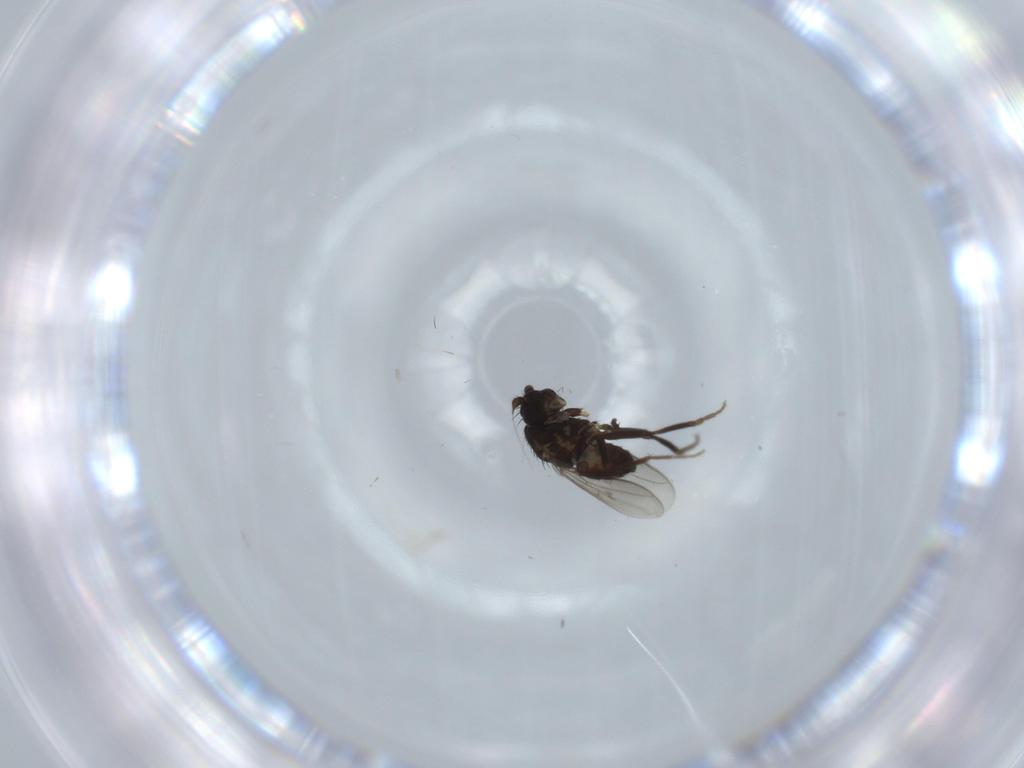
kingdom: Animalia
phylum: Arthropoda
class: Insecta
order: Diptera
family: Sphaeroceridae
